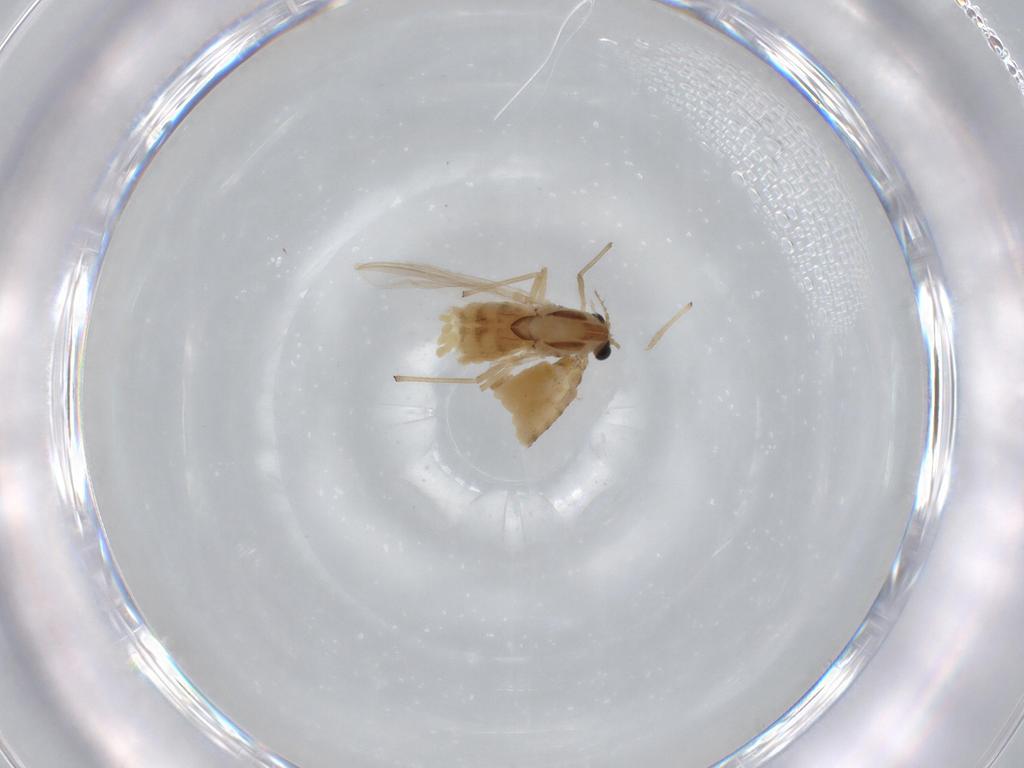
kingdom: Animalia
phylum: Arthropoda
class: Insecta
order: Diptera
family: Chironomidae
